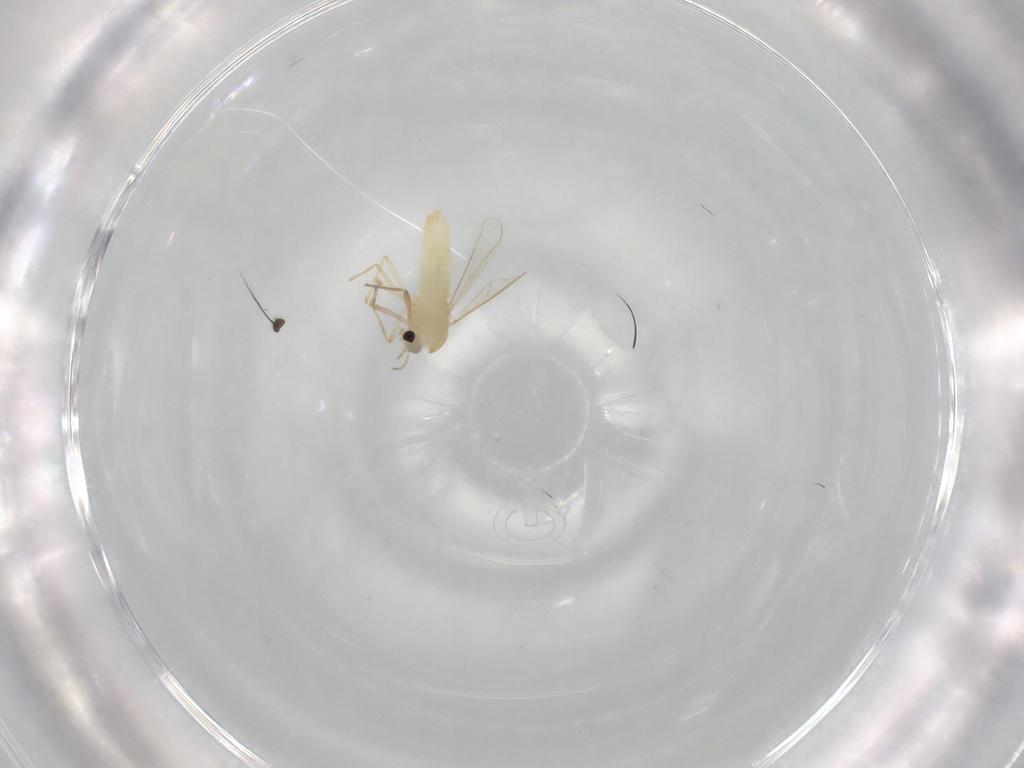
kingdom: Animalia
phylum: Arthropoda
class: Insecta
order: Diptera
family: Chironomidae
